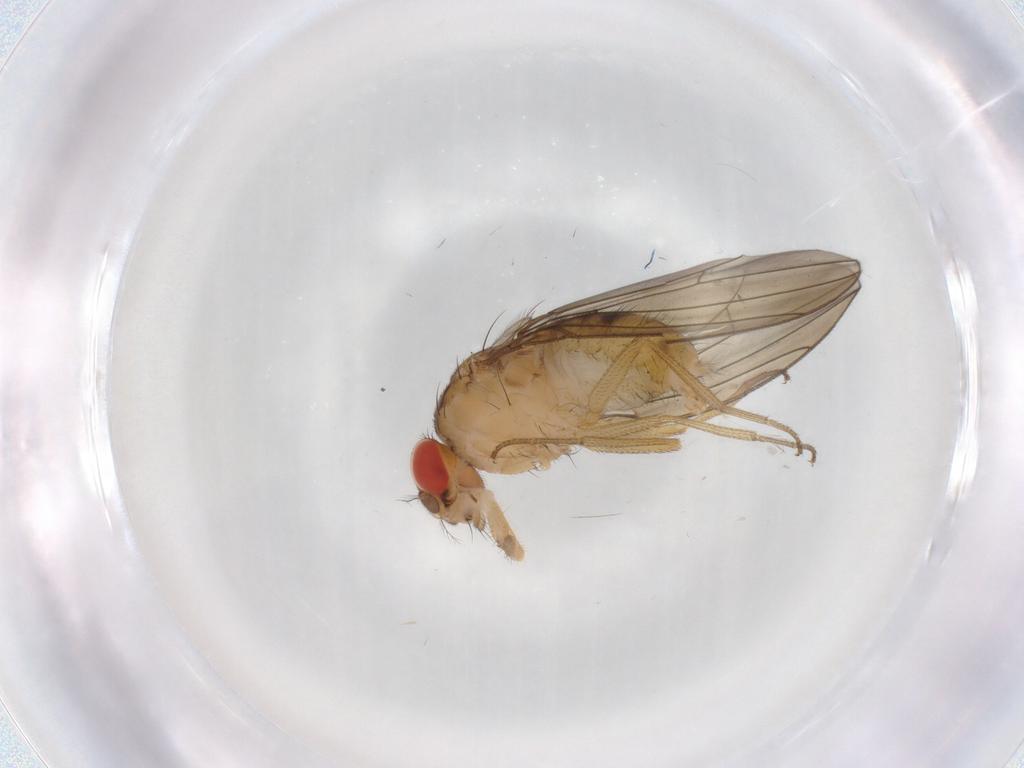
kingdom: Animalia
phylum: Arthropoda
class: Insecta
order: Diptera
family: Drosophilidae
